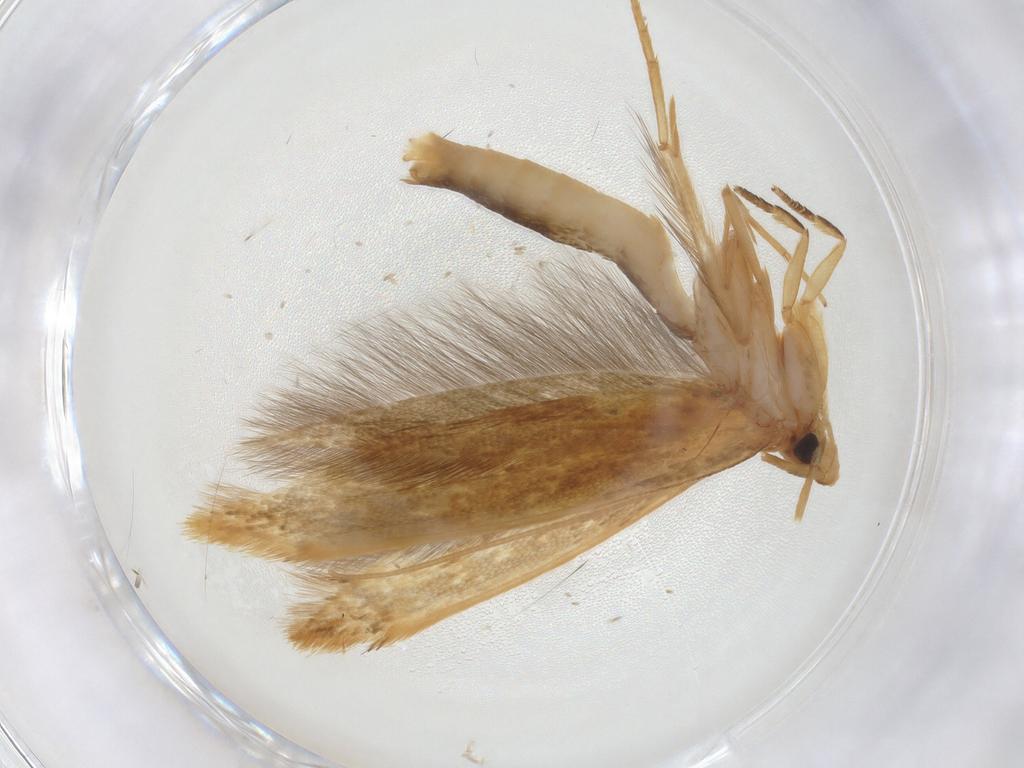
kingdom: Animalia
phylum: Arthropoda
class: Insecta
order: Lepidoptera
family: Tineidae
